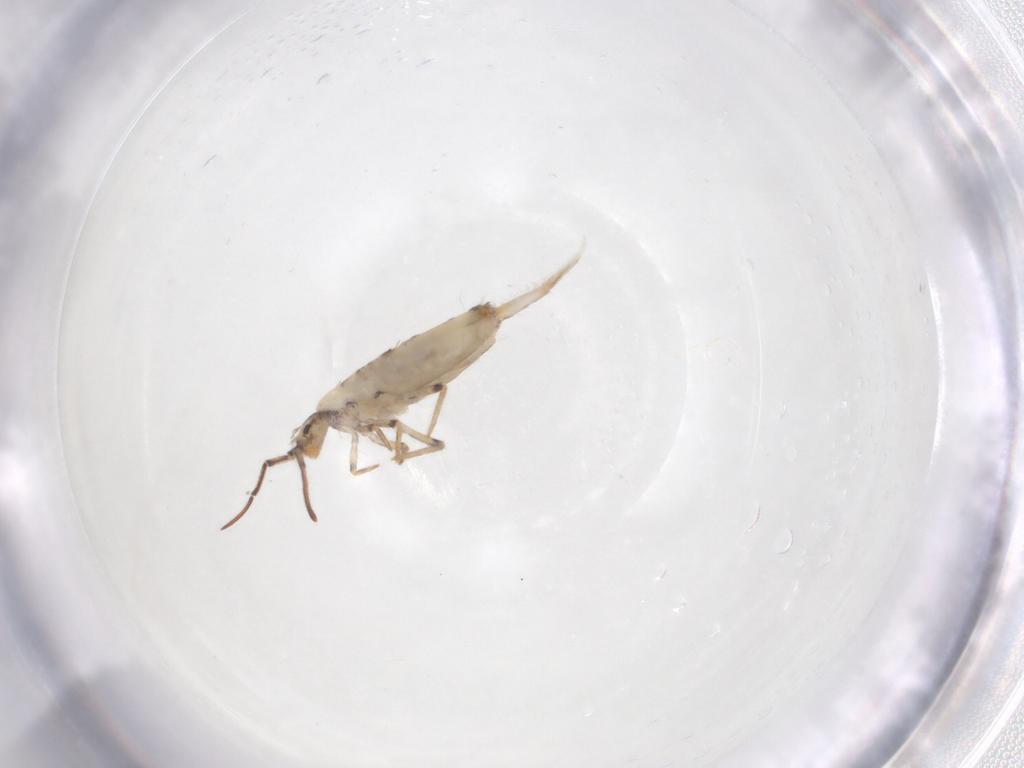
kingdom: Animalia
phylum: Arthropoda
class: Collembola
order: Entomobryomorpha
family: Entomobryidae
